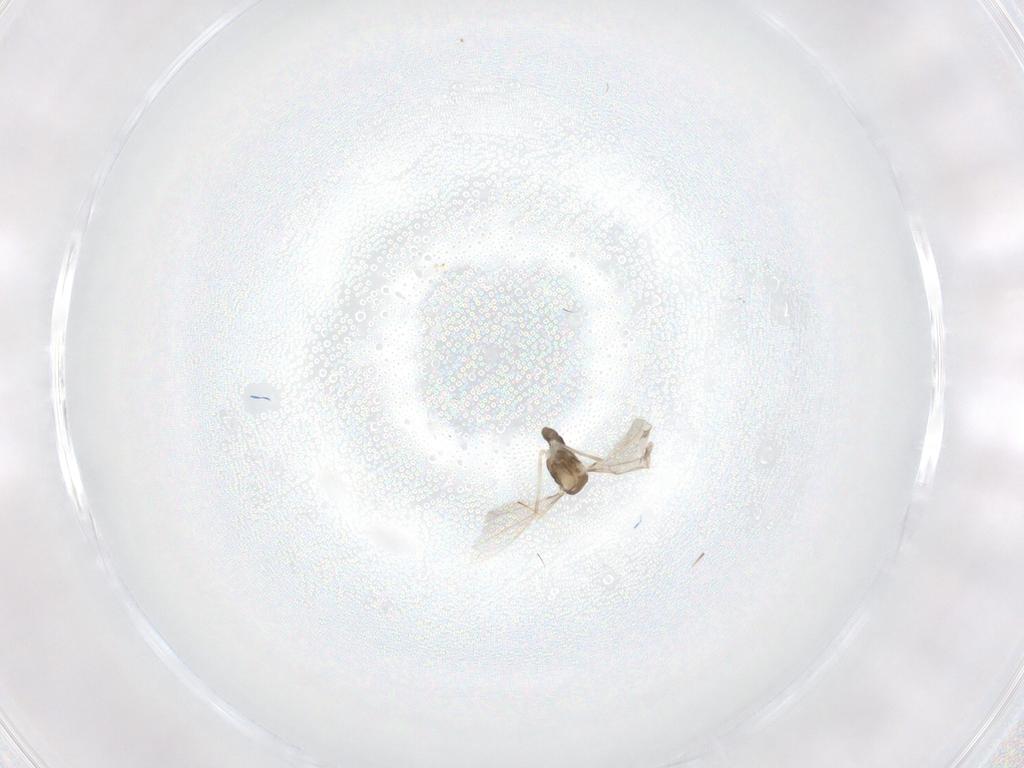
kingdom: Animalia
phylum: Arthropoda
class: Insecta
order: Diptera
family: Cecidomyiidae
